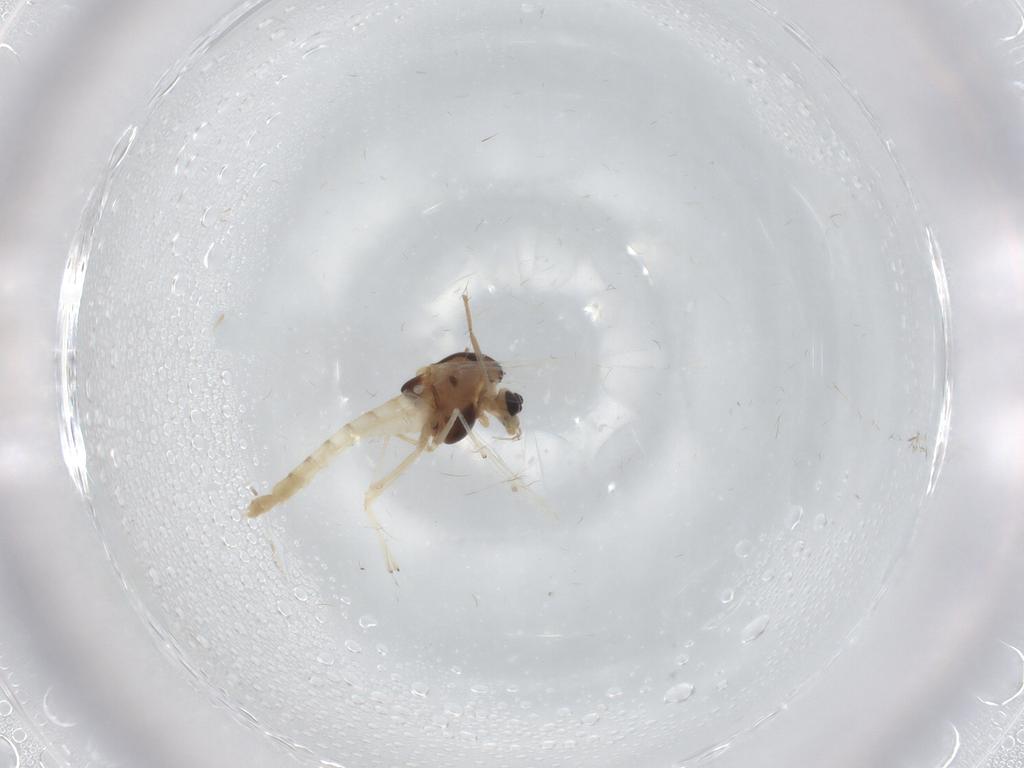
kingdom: Animalia
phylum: Arthropoda
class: Insecta
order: Diptera
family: Chironomidae
